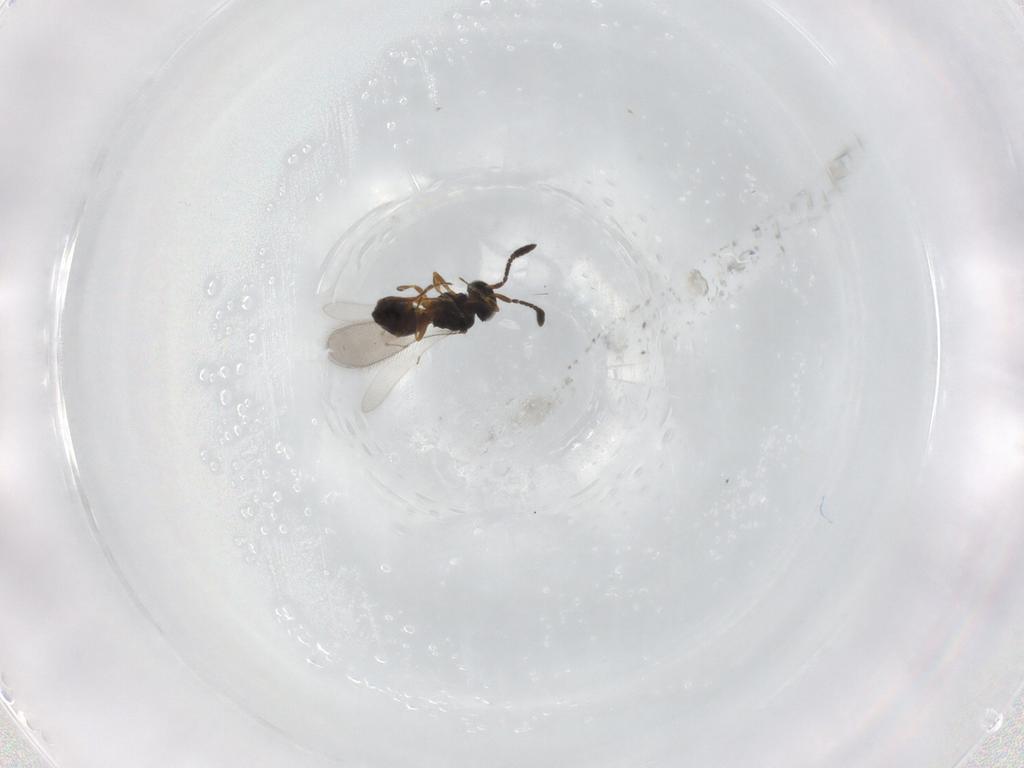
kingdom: Animalia
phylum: Arthropoda
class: Insecta
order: Hymenoptera
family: Scelionidae
